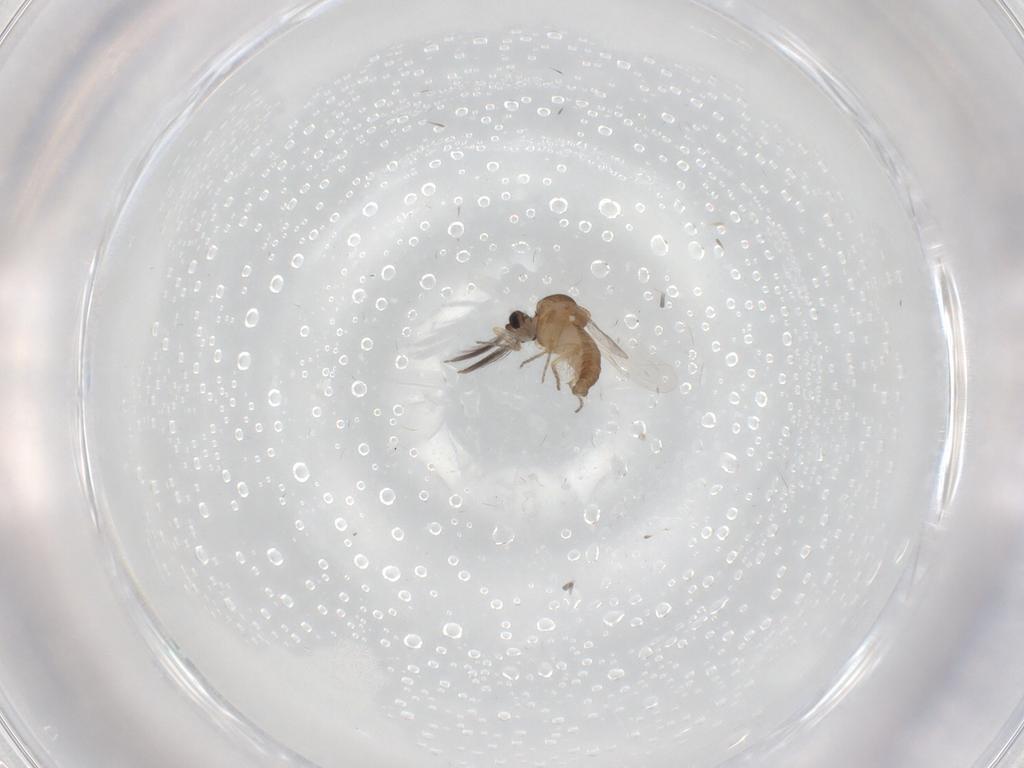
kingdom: Animalia
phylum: Arthropoda
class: Insecta
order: Diptera
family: Ceratopogonidae
